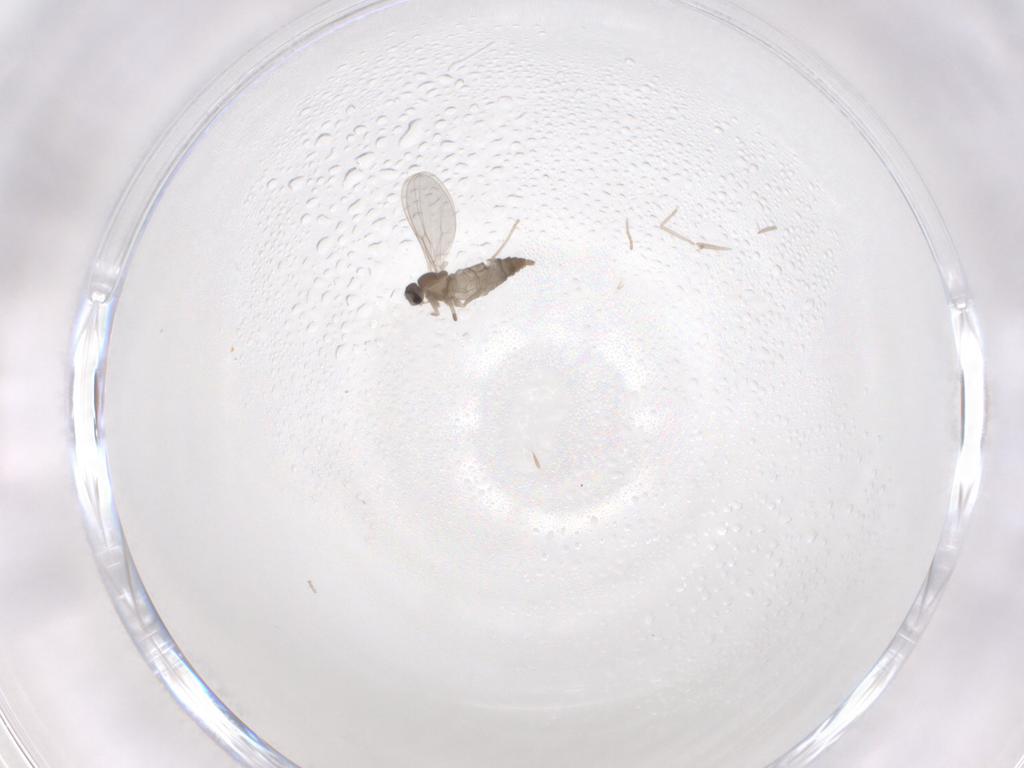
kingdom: Animalia
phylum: Arthropoda
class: Insecta
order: Diptera
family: Cecidomyiidae
